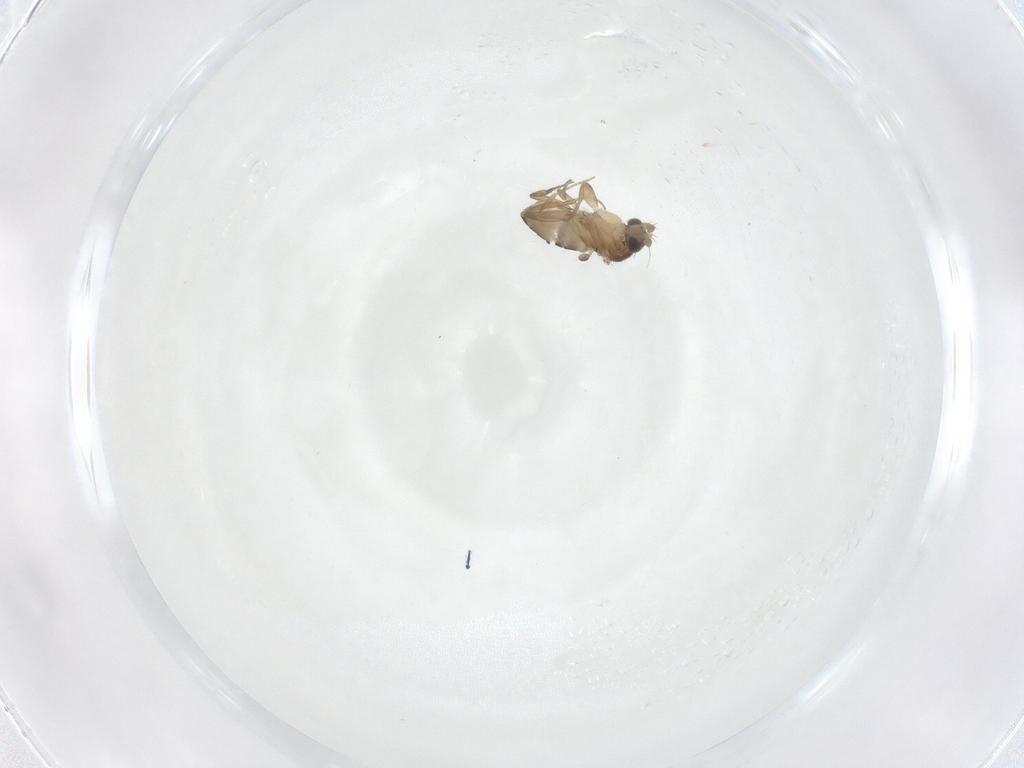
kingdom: Animalia
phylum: Arthropoda
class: Insecta
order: Diptera
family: Phoridae
